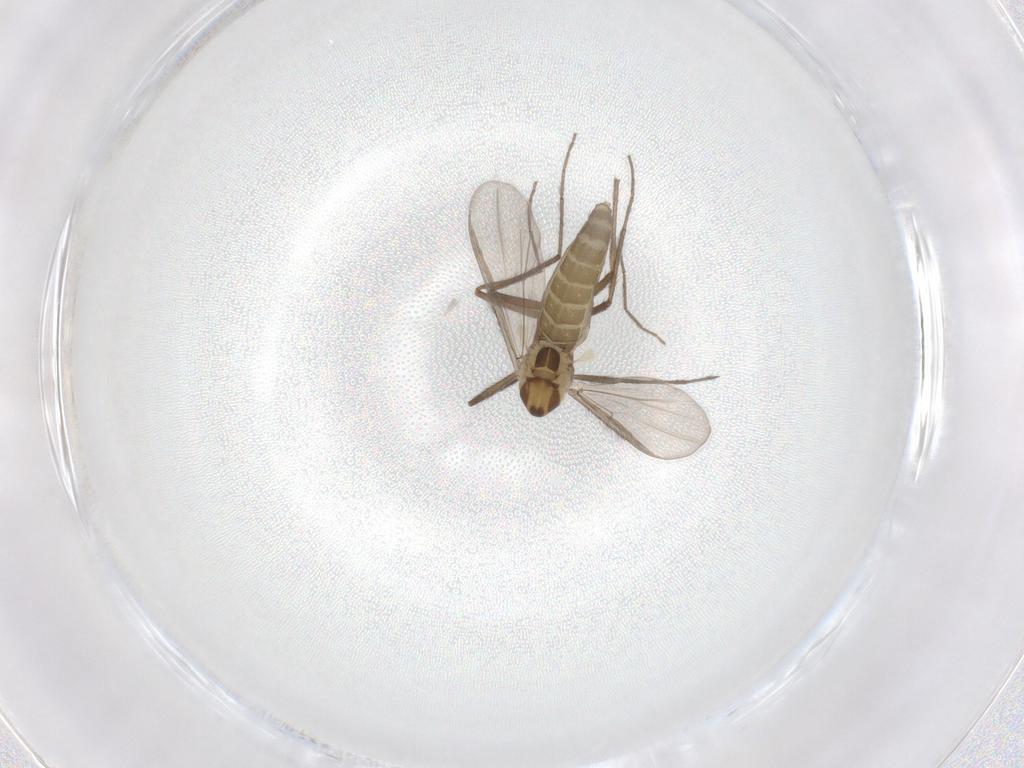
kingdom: Animalia
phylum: Arthropoda
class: Insecta
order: Diptera
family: Chironomidae
